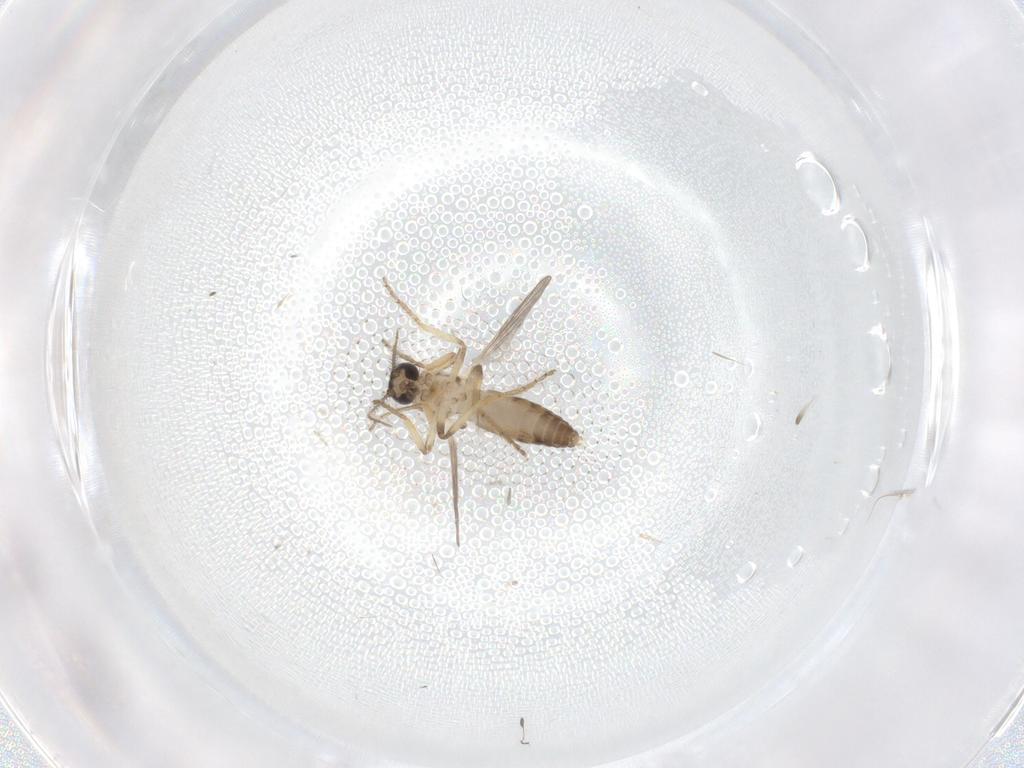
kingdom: Animalia
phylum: Arthropoda
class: Insecta
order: Diptera
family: Ceratopogonidae
